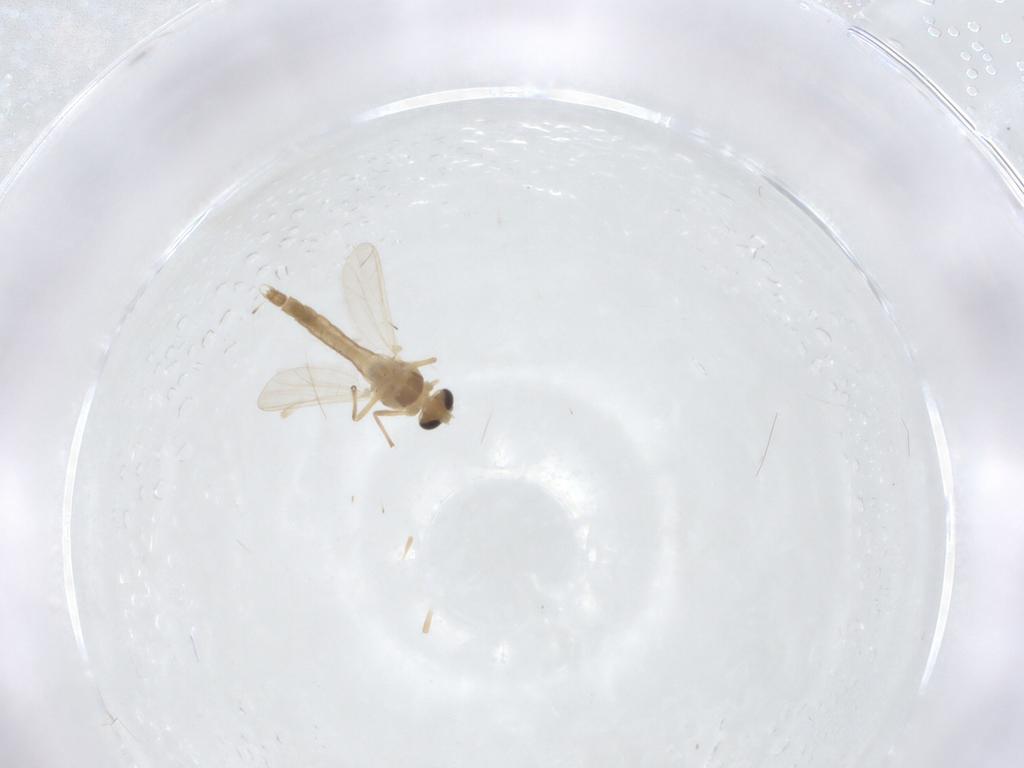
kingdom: Animalia
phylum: Arthropoda
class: Insecta
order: Diptera
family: Chironomidae
